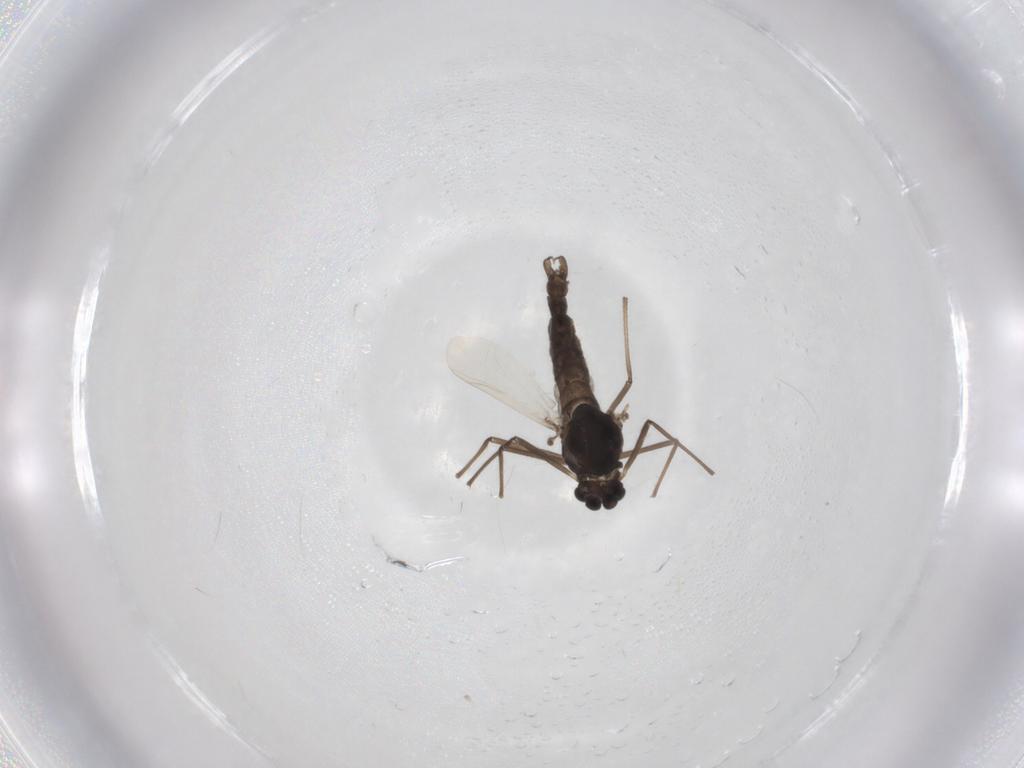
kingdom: Animalia
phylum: Arthropoda
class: Insecta
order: Diptera
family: Chironomidae
